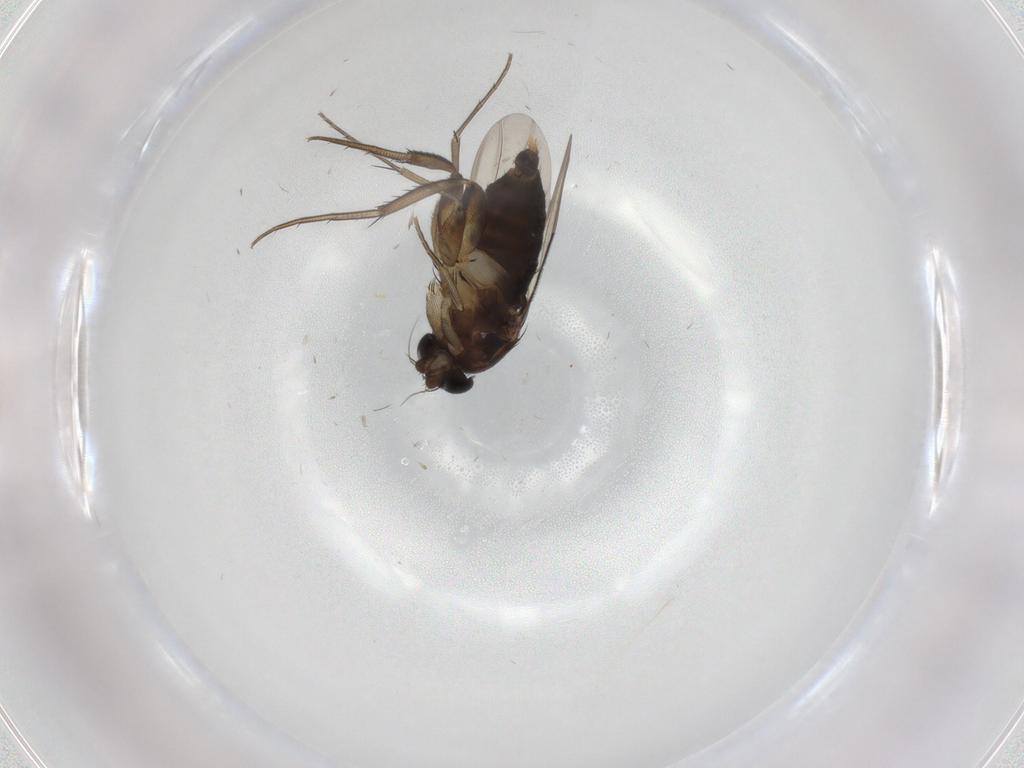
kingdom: Animalia
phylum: Arthropoda
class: Insecta
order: Diptera
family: Phoridae
